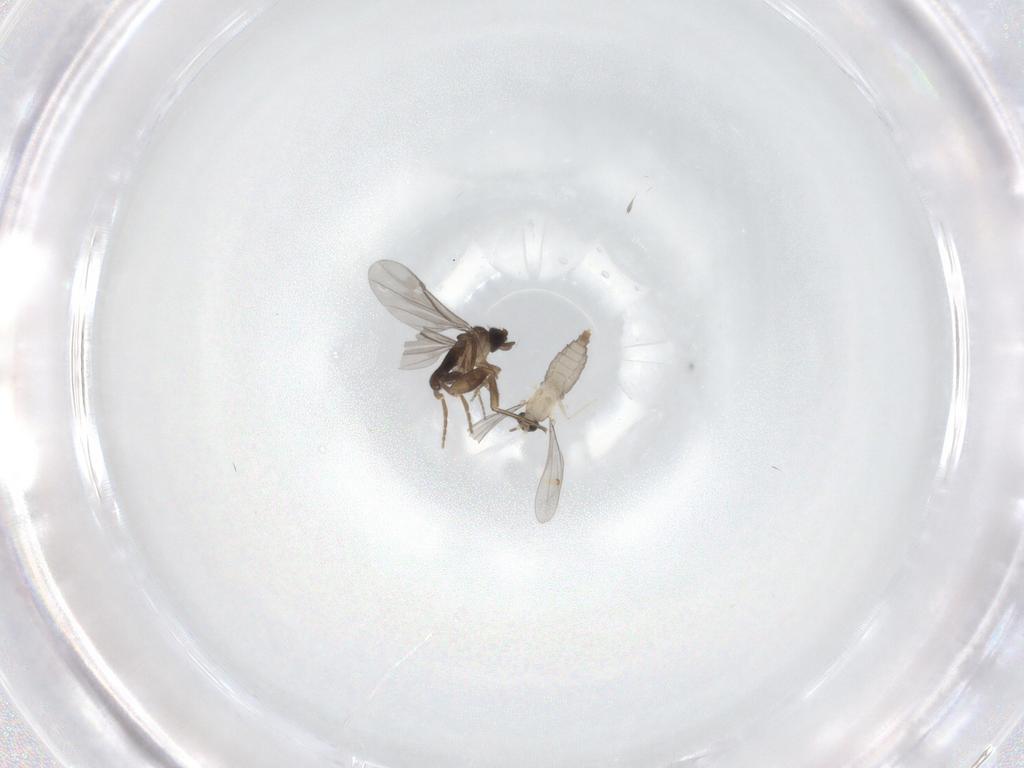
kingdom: Animalia
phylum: Arthropoda
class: Insecta
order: Diptera
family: Phoridae
